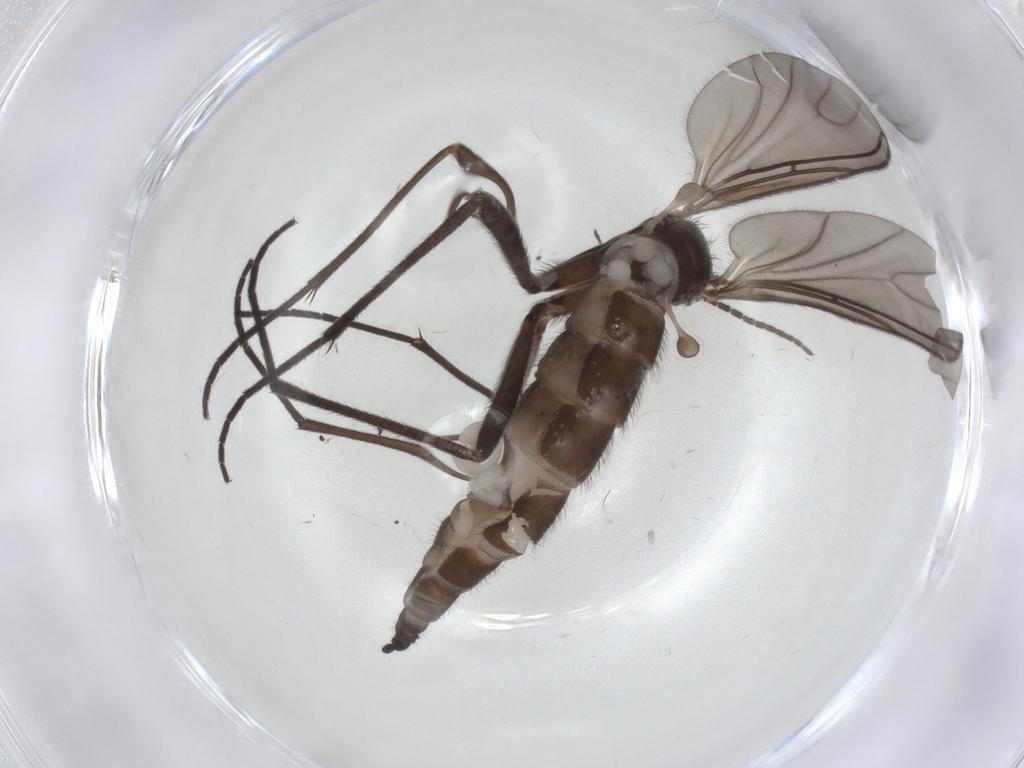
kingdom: Animalia
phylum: Arthropoda
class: Insecta
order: Diptera
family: Sciaridae
